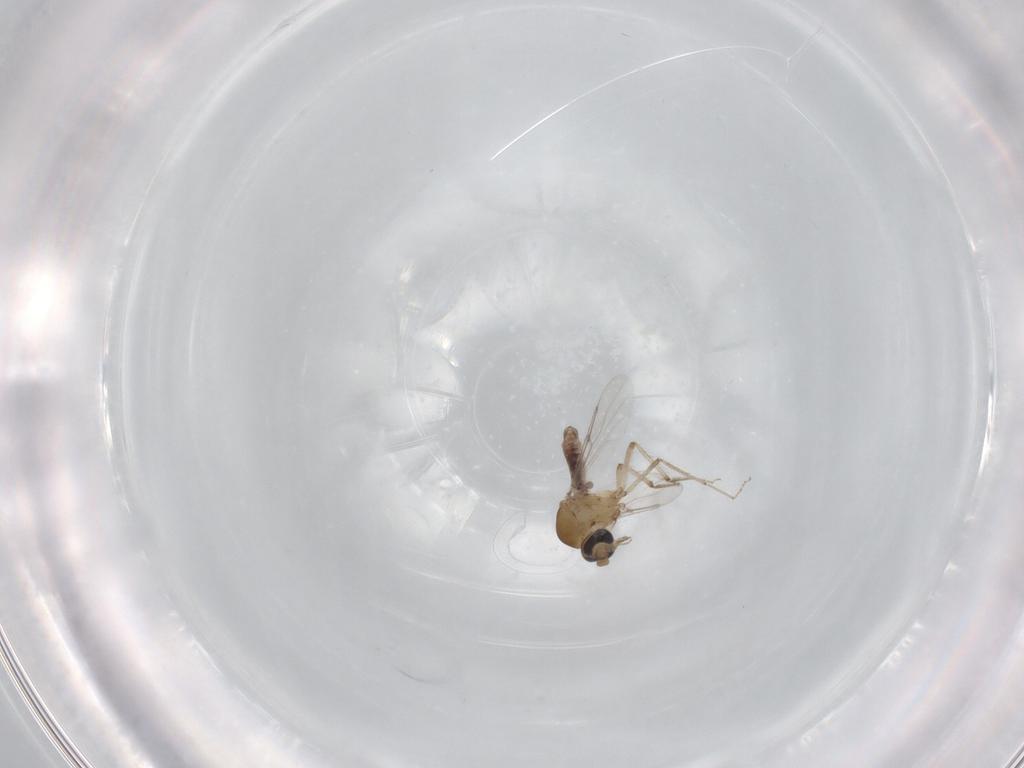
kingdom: Animalia
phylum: Arthropoda
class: Insecta
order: Diptera
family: Ceratopogonidae
